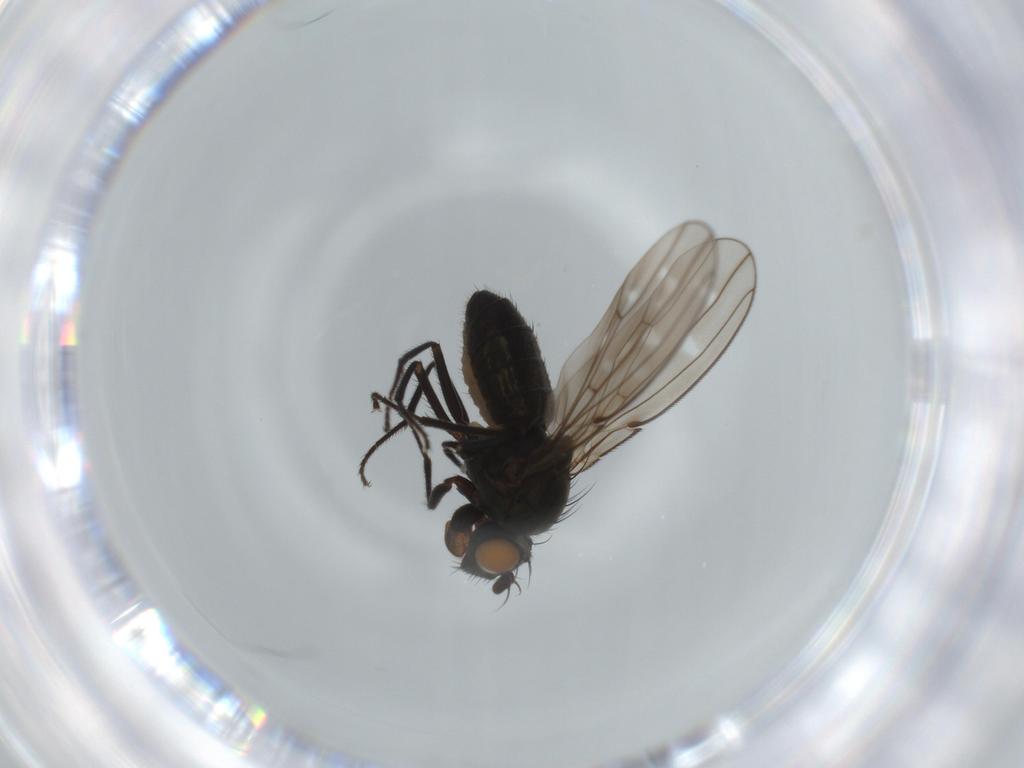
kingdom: Animalia
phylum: Arthropoda
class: Insecta
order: Diptera
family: Ephydridae
